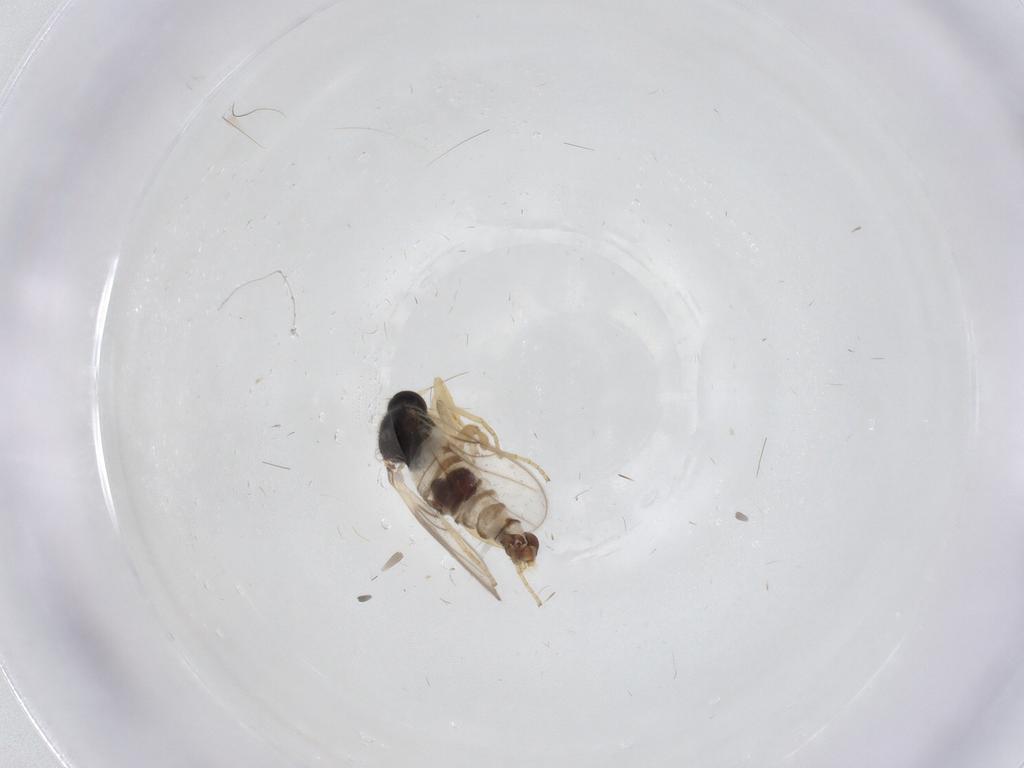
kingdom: Animalia
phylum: Arthropoda
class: Insecta
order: Diptera
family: Hybotidae
